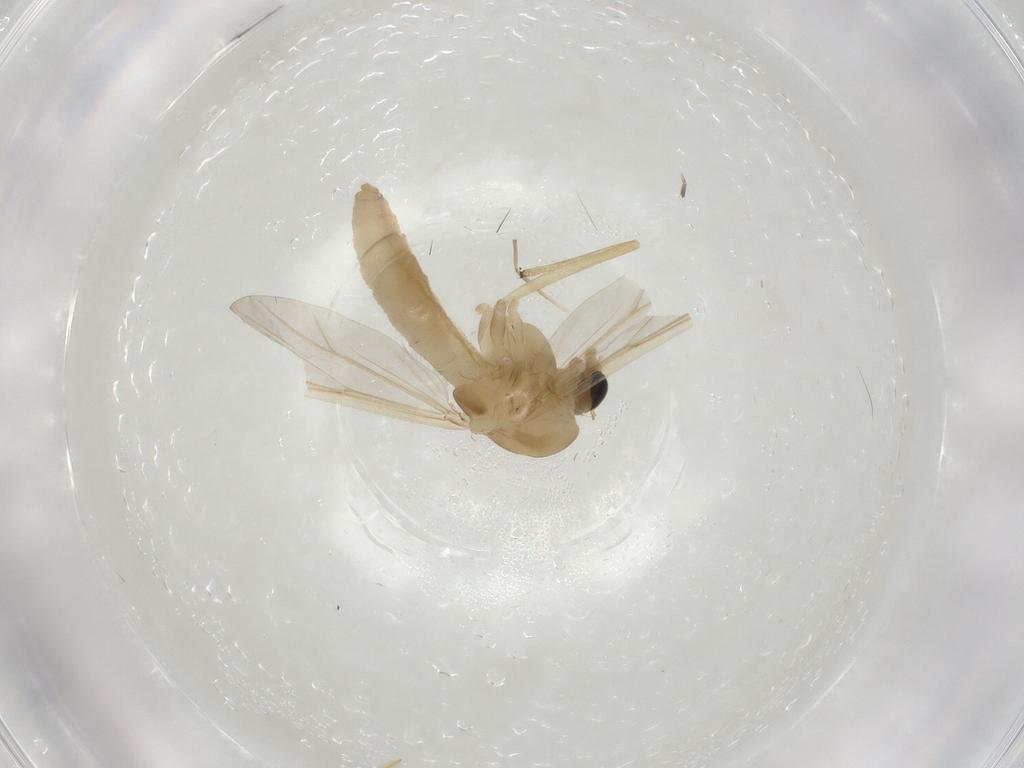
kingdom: Animalia
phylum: Arthropoda
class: Insecta
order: Diptera
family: Chironomidae
